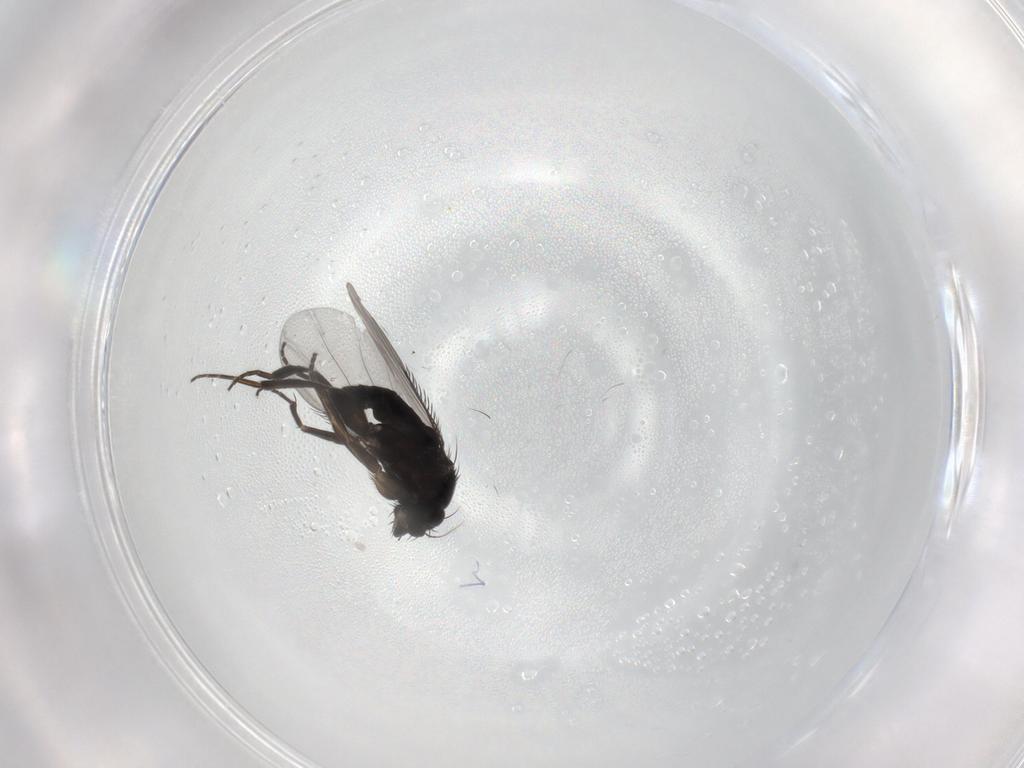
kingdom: Animalia
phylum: Arthropoda
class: Insecta
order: Diptera
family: Phoridae
